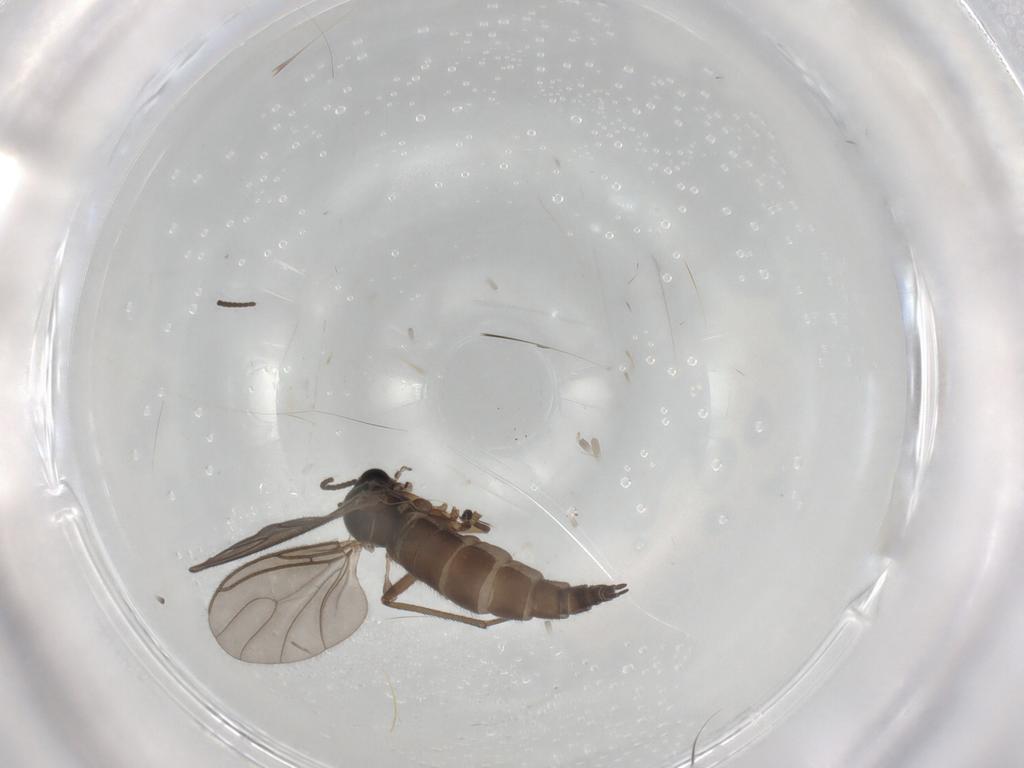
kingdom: Animalia
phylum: Arthropoda
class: Insecta
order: Diptera
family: Sciaridae
